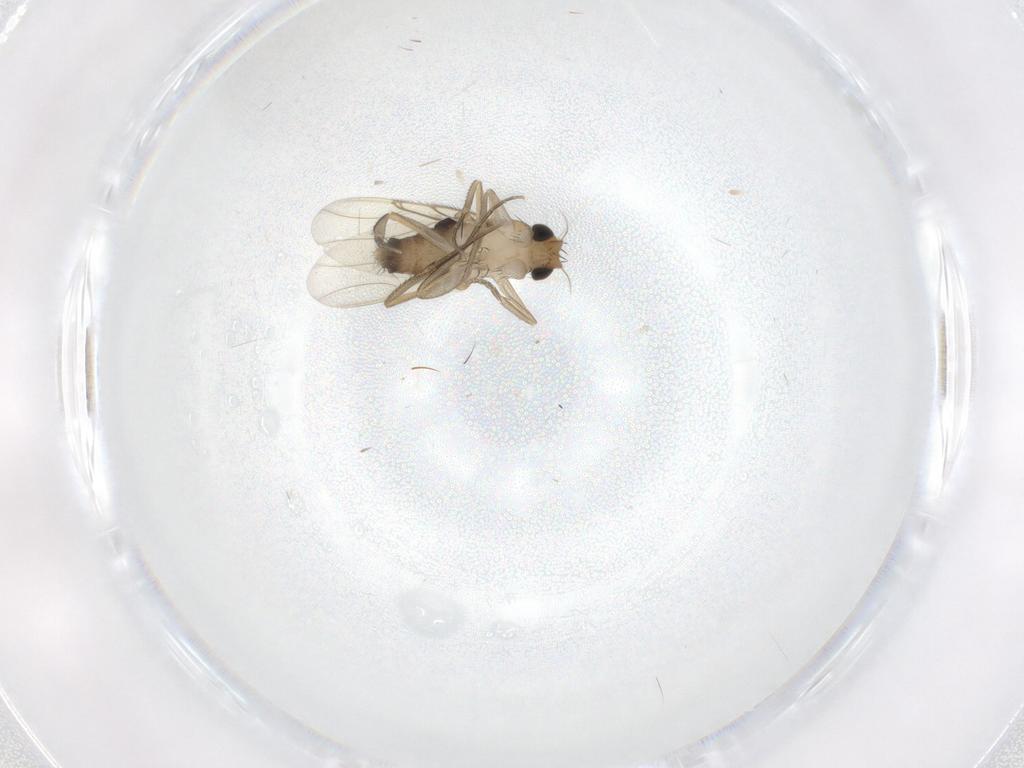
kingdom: Animalia
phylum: Arthropoda
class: Insecta
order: Diptera
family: Phoridae
